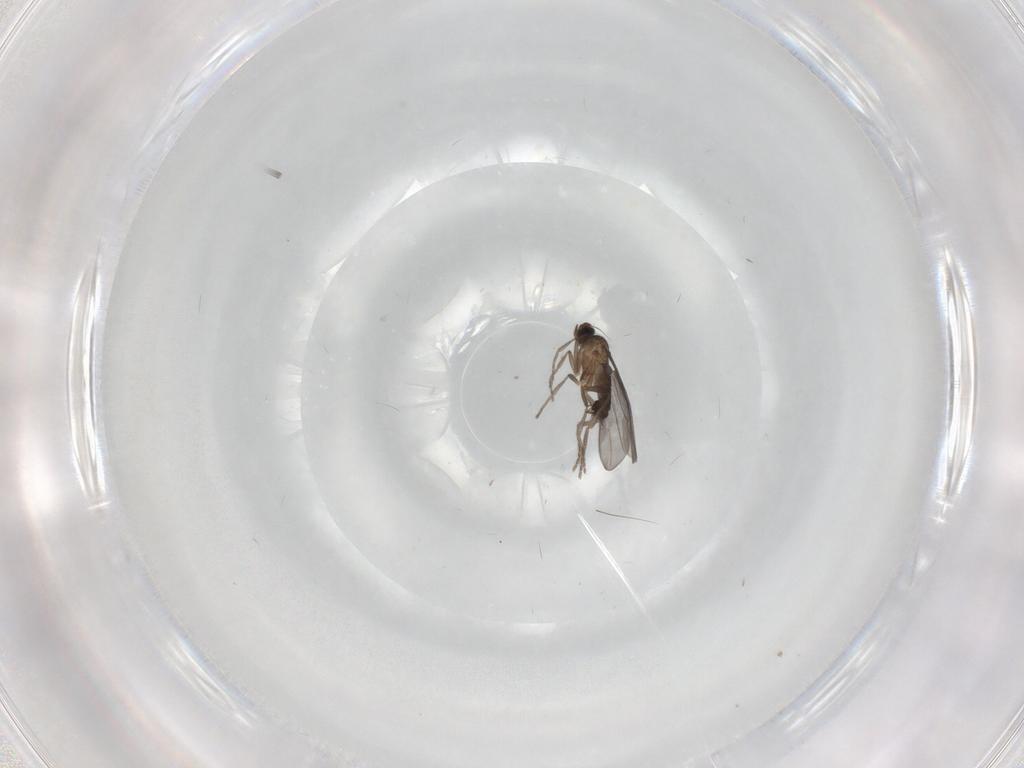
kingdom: Animalia
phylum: Arthropoda
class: Insecta
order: Diptera
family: Phoridae
